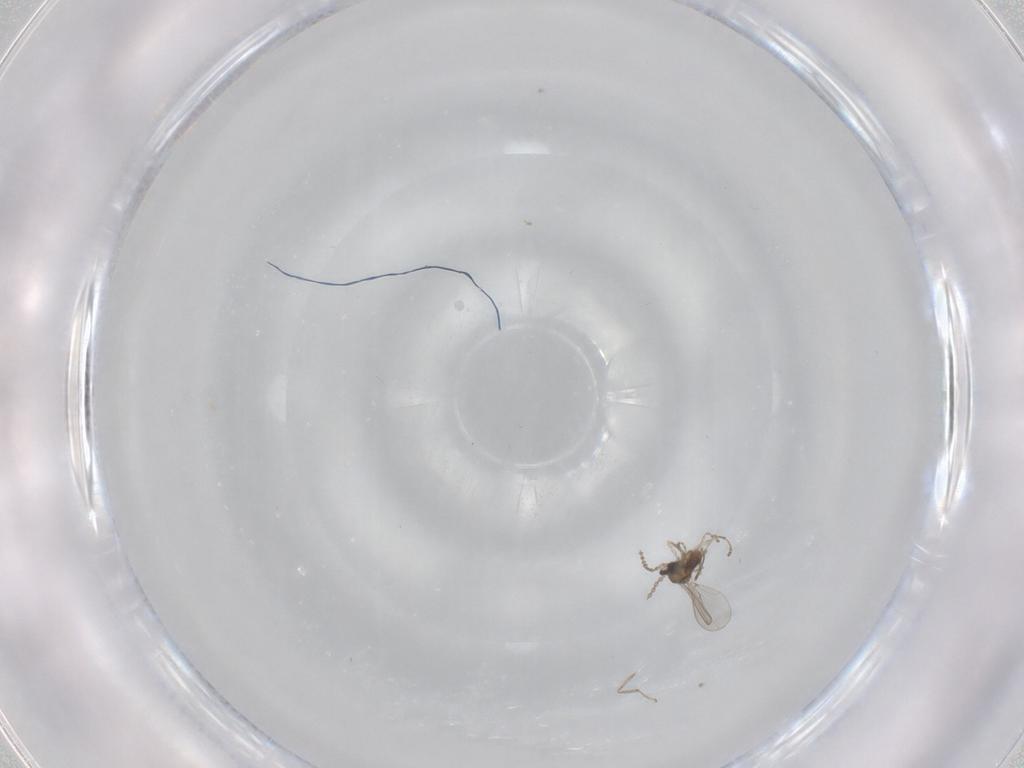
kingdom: Animalia
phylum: Arthropoda
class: Insecta
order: Diptera
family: Cecidomyiidae
